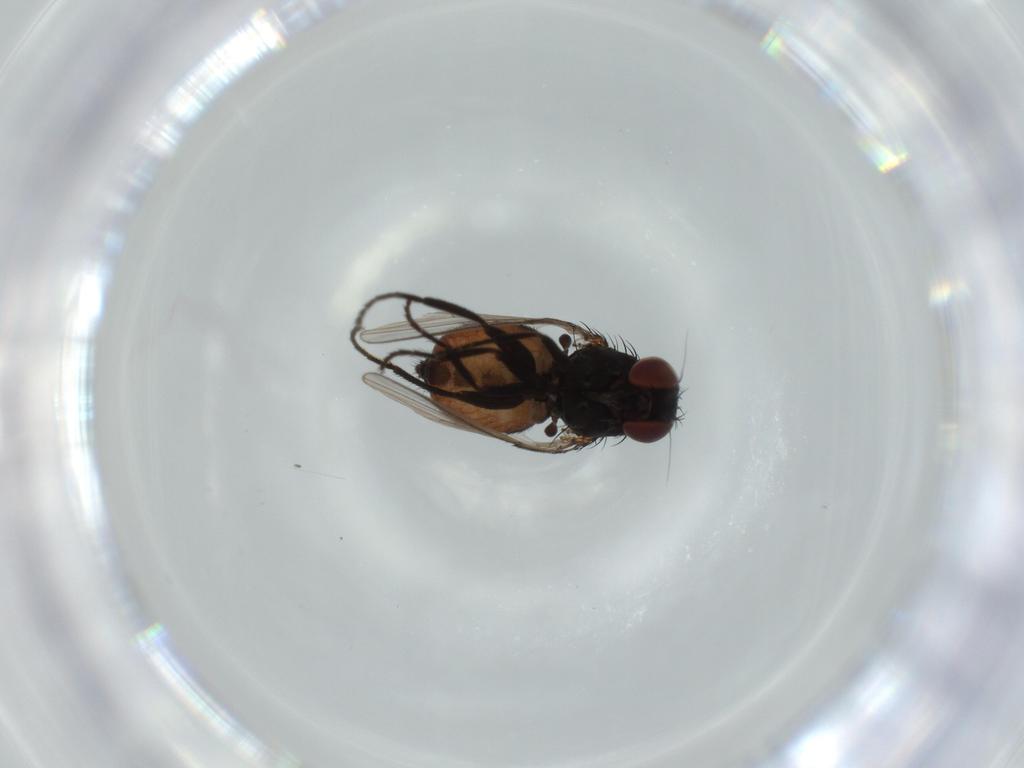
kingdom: Animalia
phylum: Arthropoda
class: Insecta
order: Diptera
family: Milichiidae
